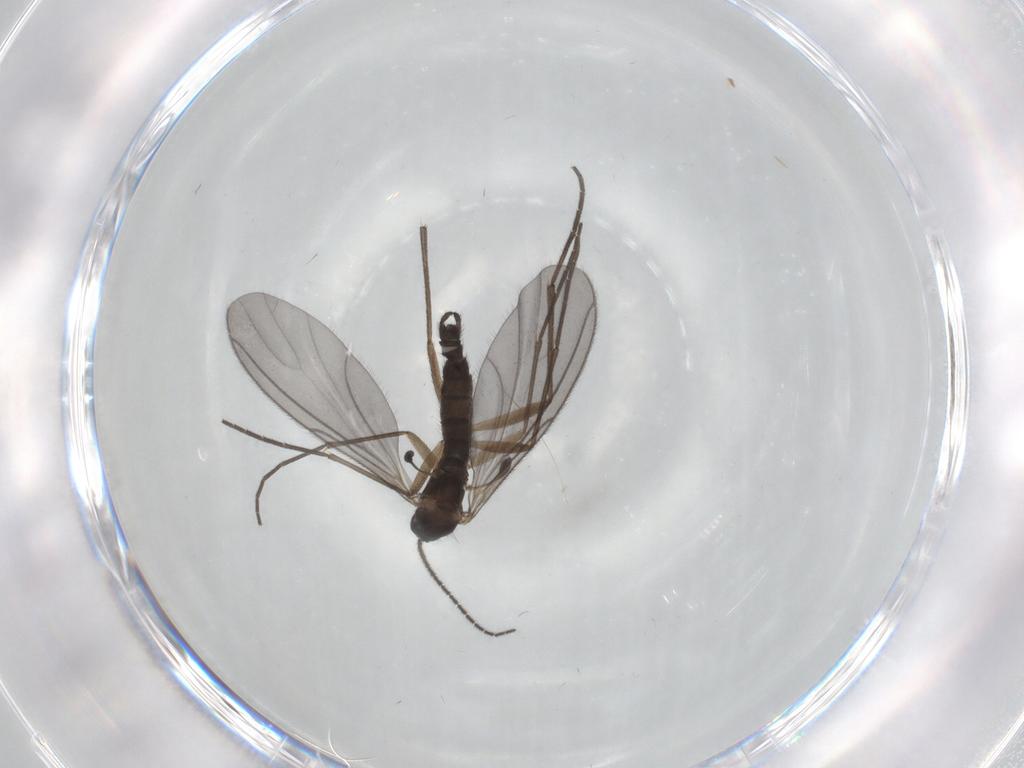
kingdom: Animalia
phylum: Arthropoda
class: Insecta
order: Diptera
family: Sciaridae
